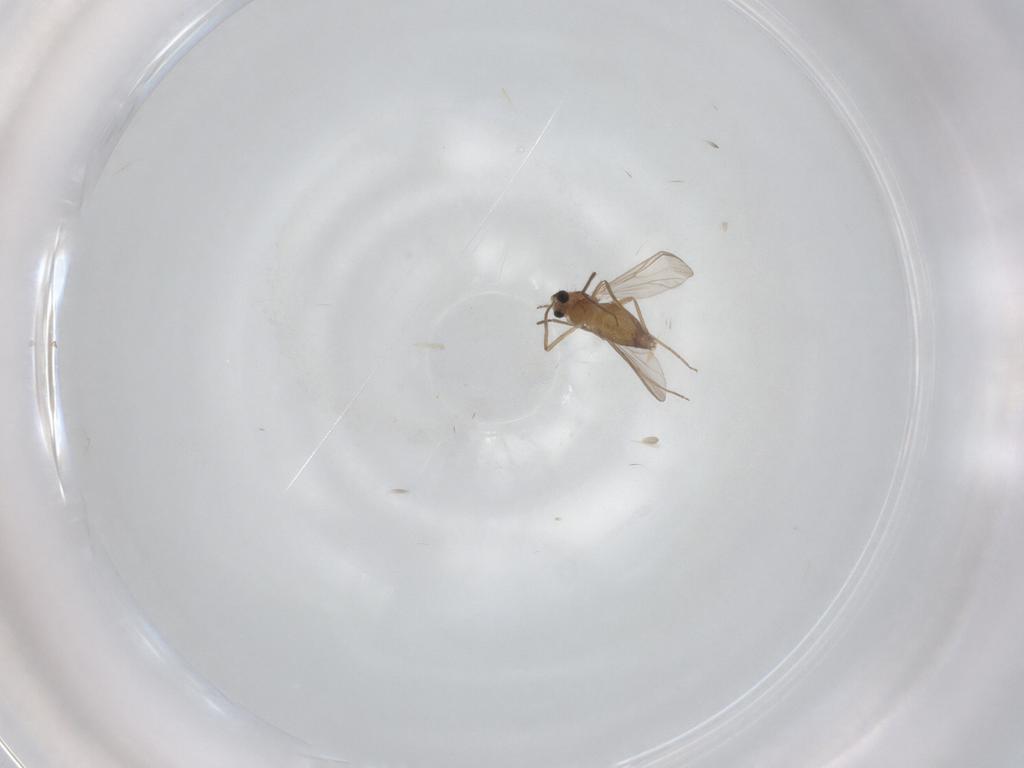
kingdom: Animalia
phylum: Arthropoda
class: Insecta
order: Diptera
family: Chironomidae
